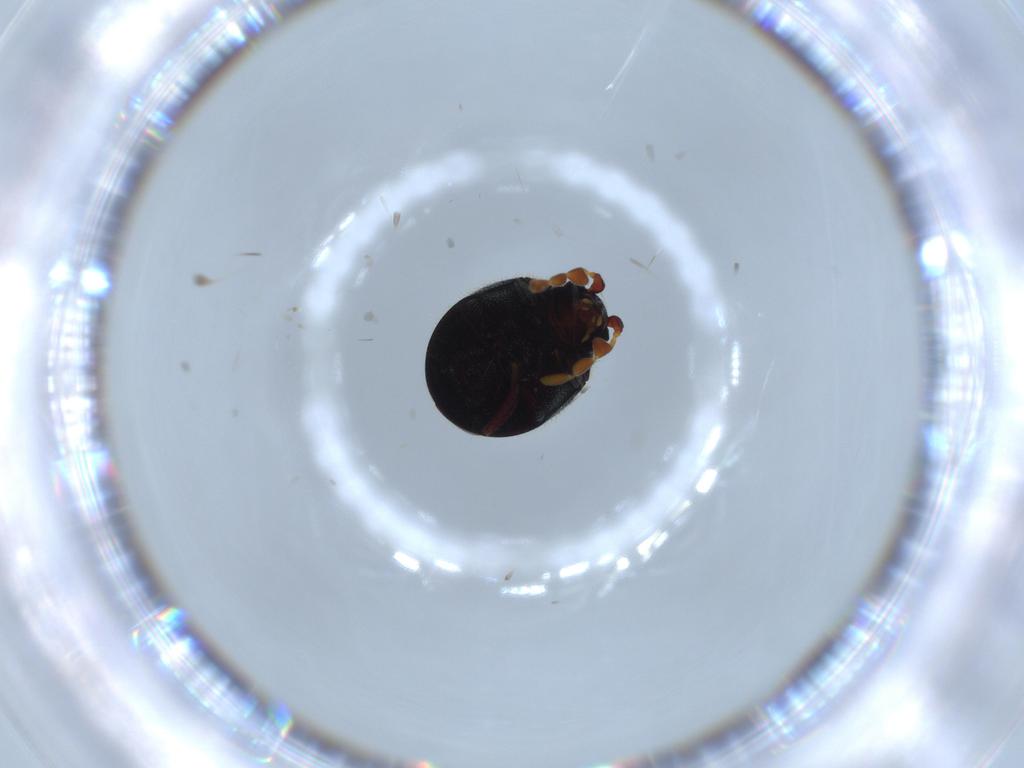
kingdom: Animalia
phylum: Arthropoda
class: Insecta
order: Coleoptera
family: Ptinidae
